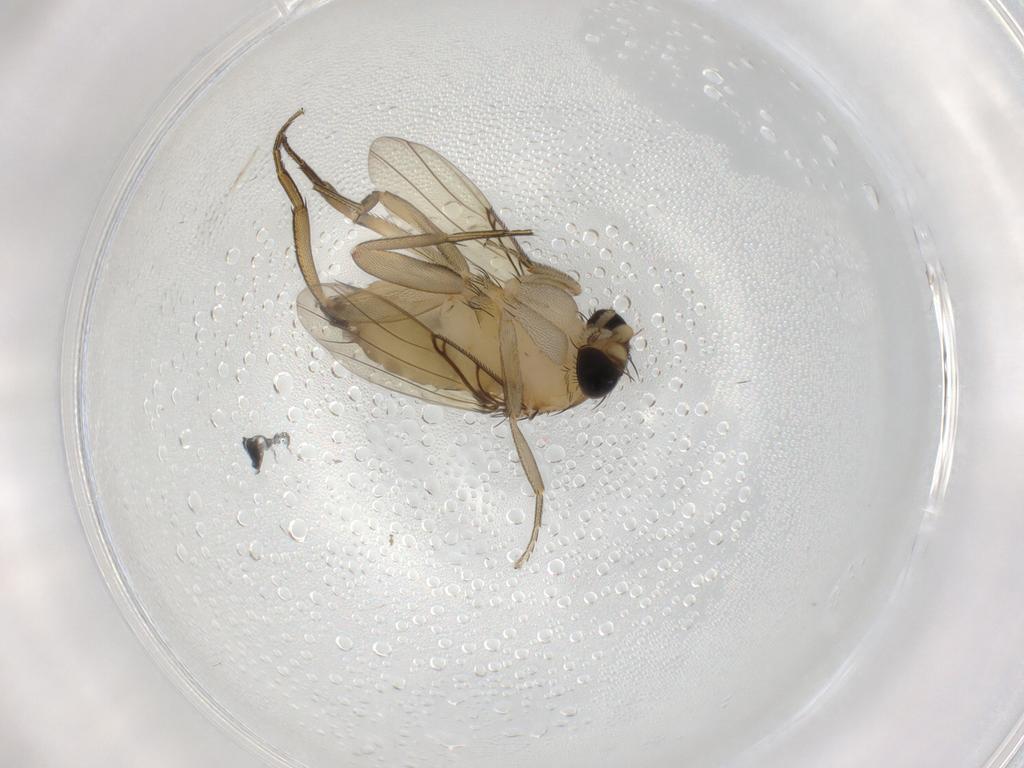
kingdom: Animalia
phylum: Arthropoda
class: Insecta
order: Diptera
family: Phoridae
